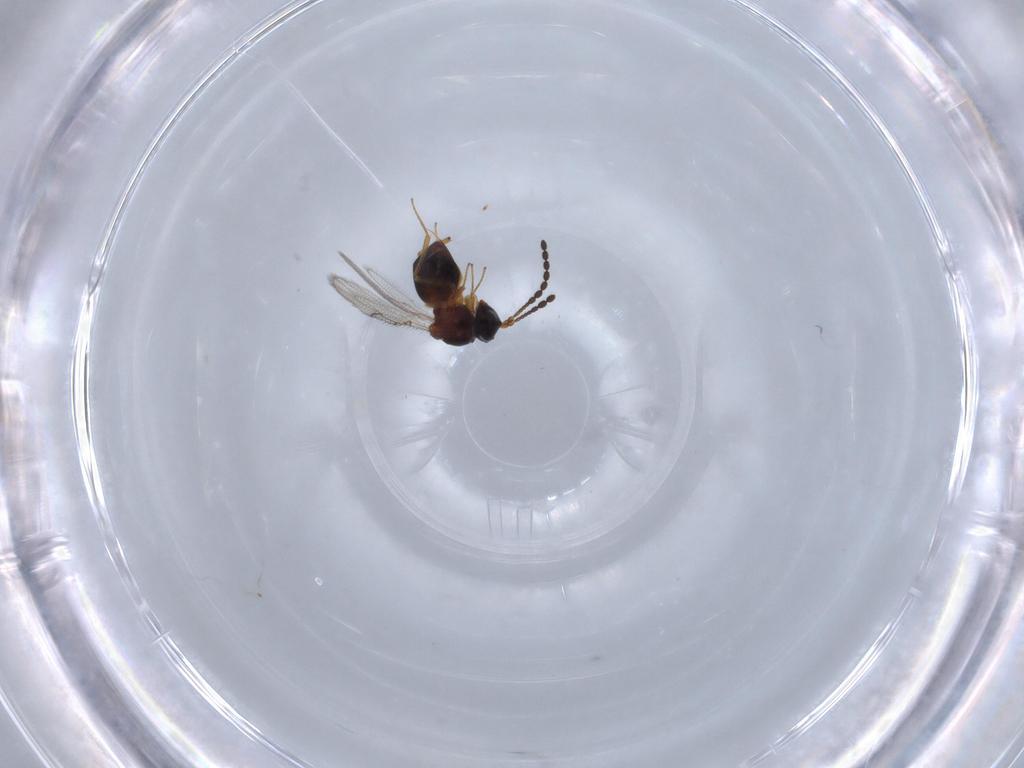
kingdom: Animalia
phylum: Arthropoda
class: Insecta
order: Hymenoptera
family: Figitidae
